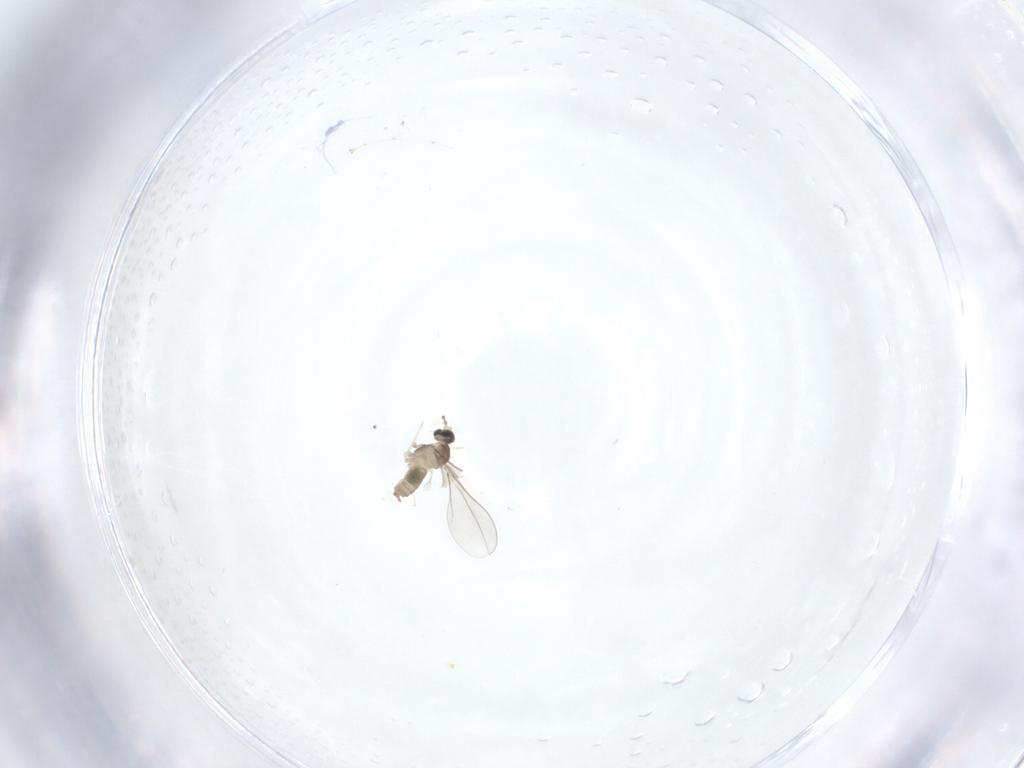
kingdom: Animalia
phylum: Arthropoda
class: Insecta
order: Diptera
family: Cecidomyiidae
